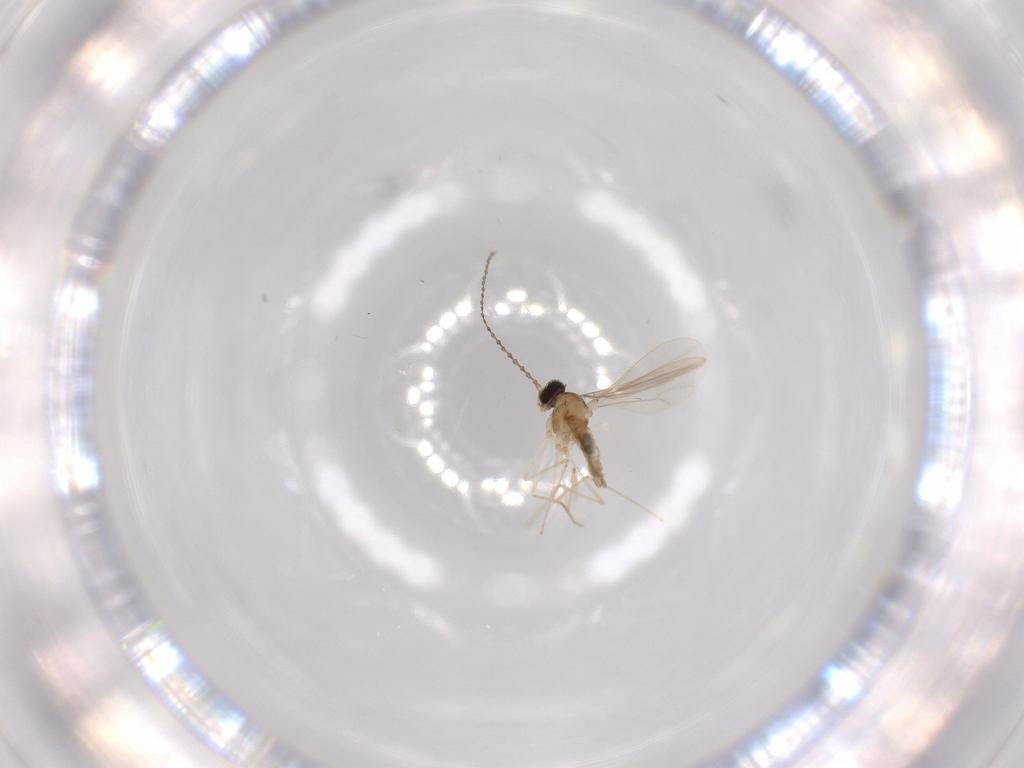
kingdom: Animalia
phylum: Arthropoda
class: Insecta
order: Diptera
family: Cecidomyiidae
